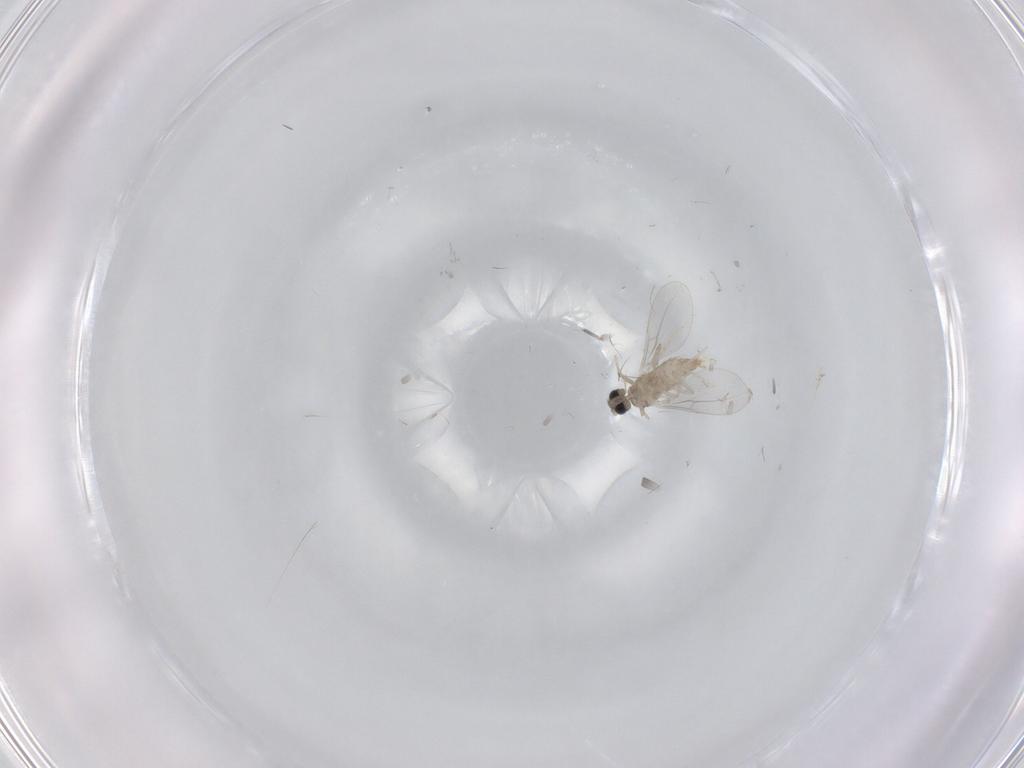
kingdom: Animalia
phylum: Arthropoda
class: Insecta
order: Diptera
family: Cecidomyiidae
